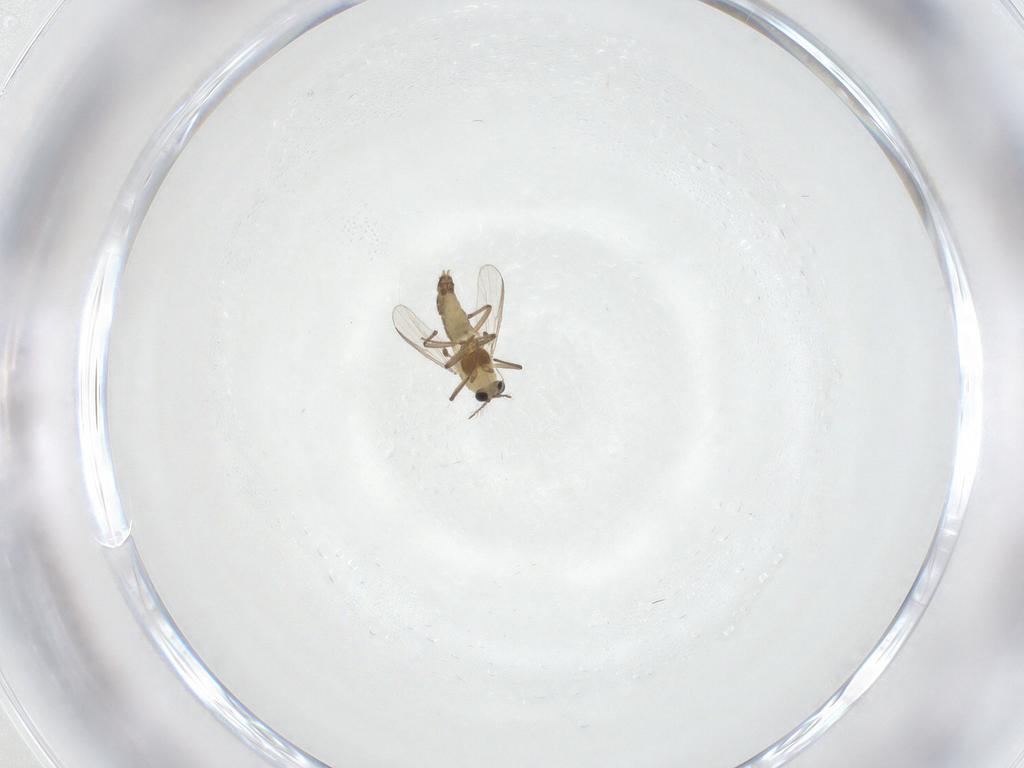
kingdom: Animalia
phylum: Arthropoda
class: Insecta
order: Diptera
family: Chironomidae
